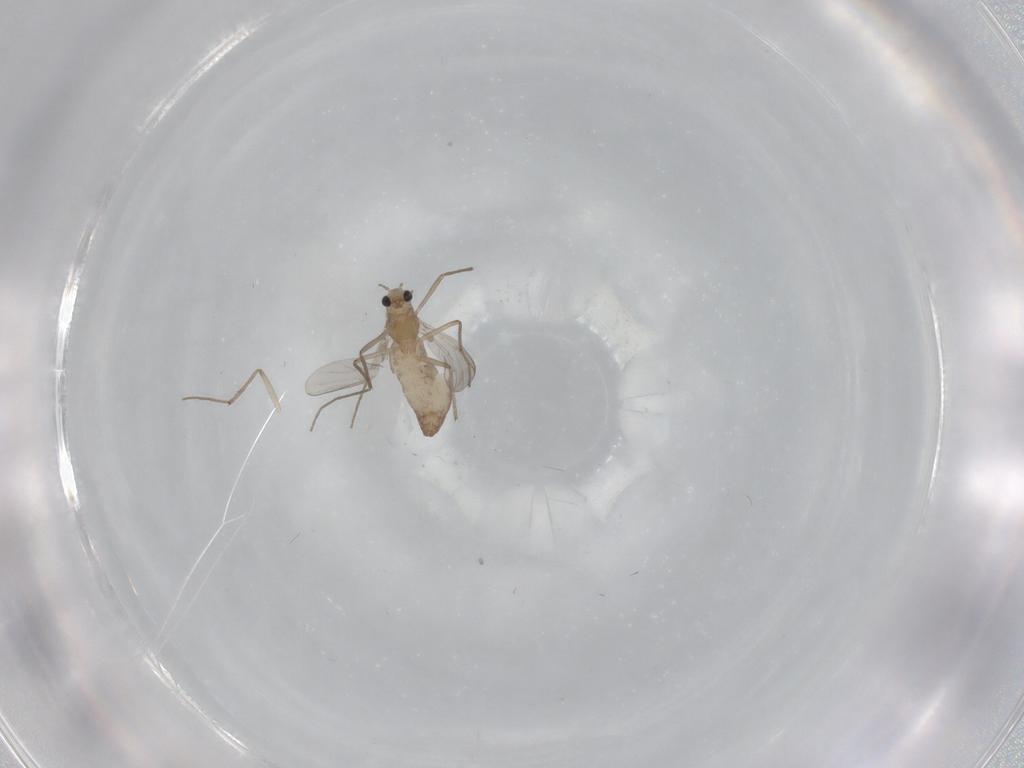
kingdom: Animalia
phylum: Arthropoda
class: Insecta
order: Diptera
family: Chironomidae
